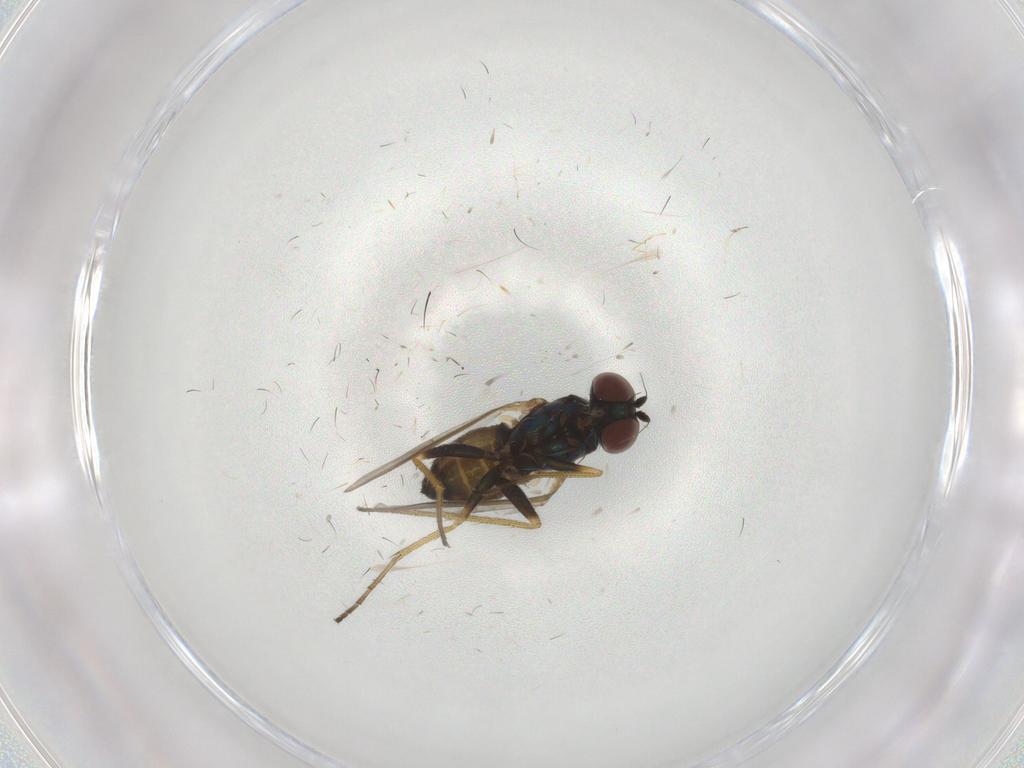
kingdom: Animalia
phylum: Arthropoda
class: Insecta
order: Diptera
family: Dolichopodidae
